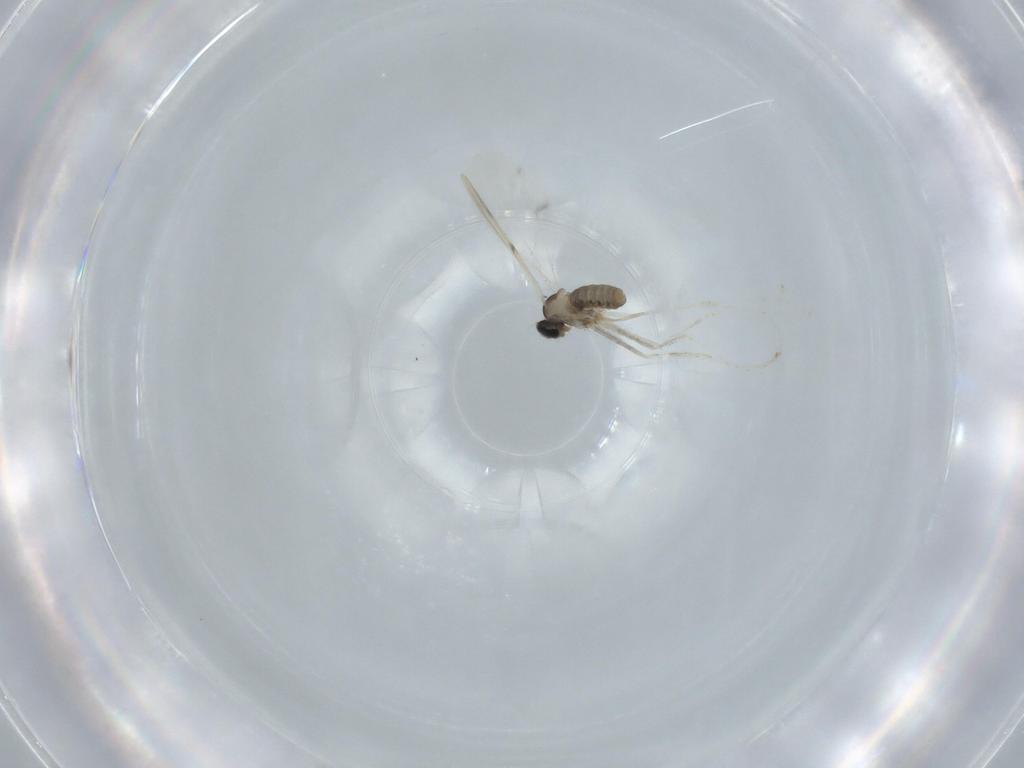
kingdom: Animalia
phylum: Arthropoda
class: Insecta
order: Diptera
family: Cecidomyiidae
